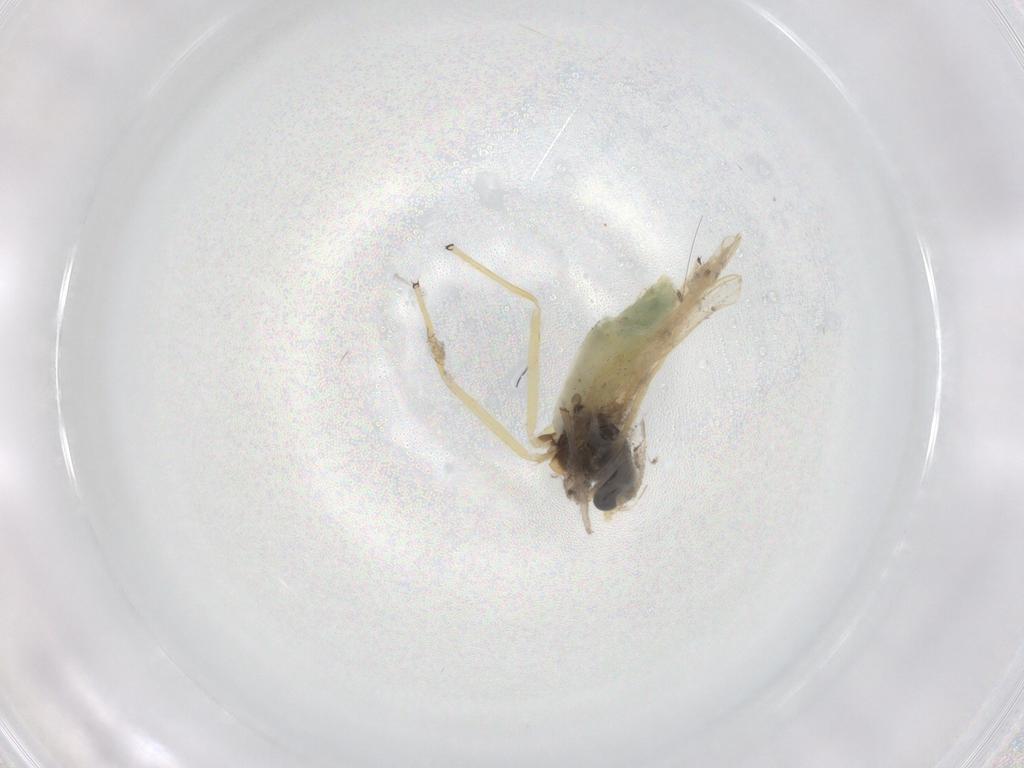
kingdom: Animalia
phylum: Arthropoda
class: Insecta
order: Diptera
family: Chironomidae
